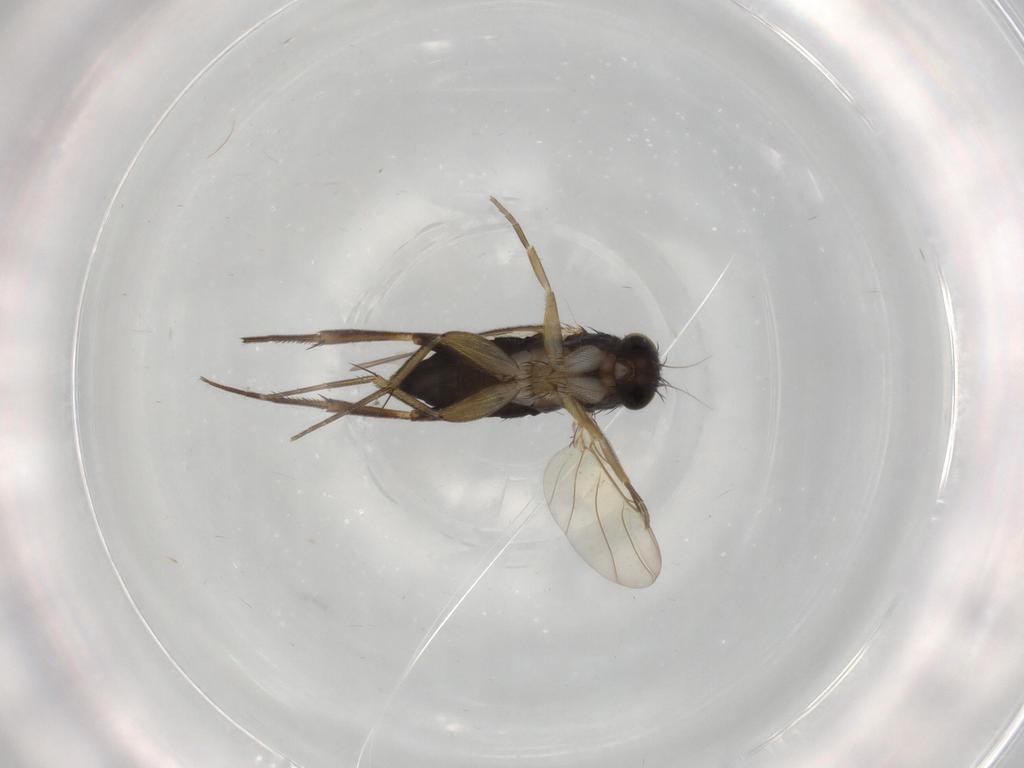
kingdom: Animalia
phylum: Arthropoda
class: Insecta
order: Diptera
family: Phoridae
